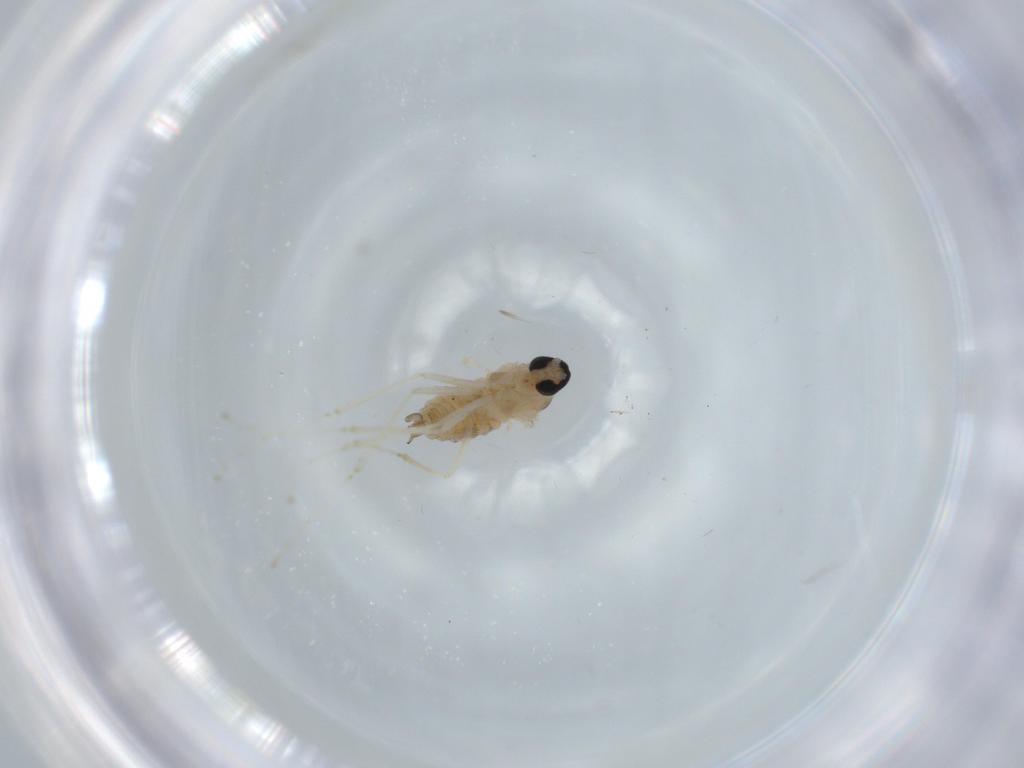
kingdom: Animalia
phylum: Arthropoda
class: Insecta
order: Diptera
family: Cecidomyiidae
